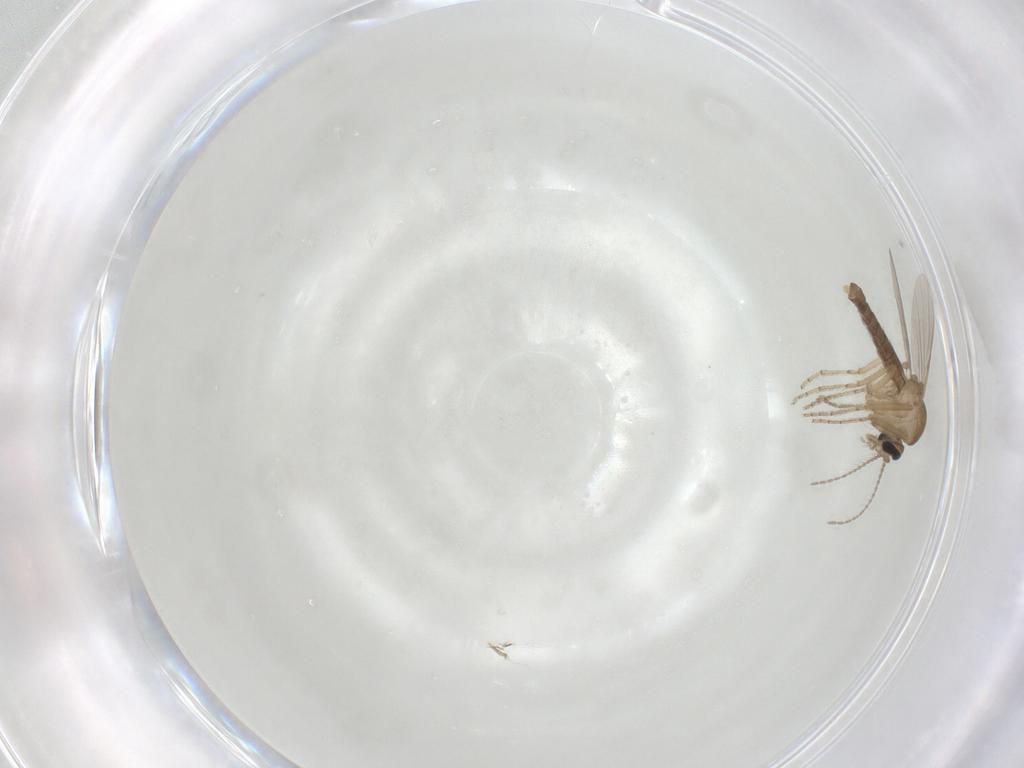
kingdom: Animalia
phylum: Arthropoda
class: Insecta
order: Diptera
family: Ceratopogonidae
